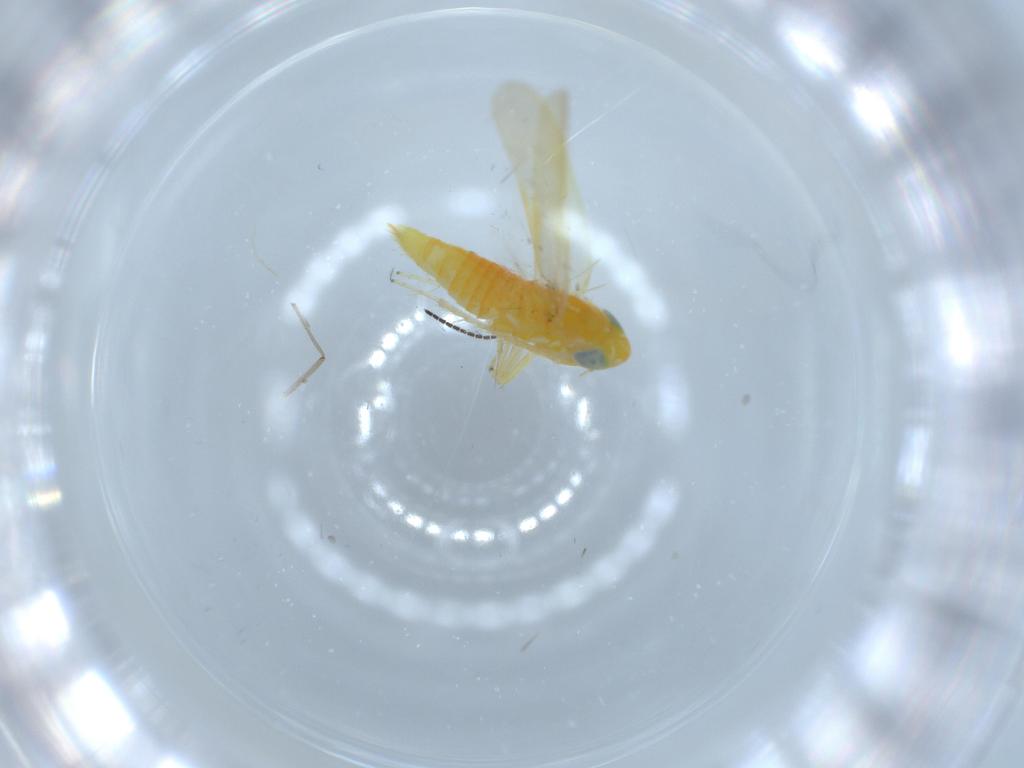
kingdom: Animalia
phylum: Arthropoda
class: Insecta
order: Hemiptera
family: Cicadellidae
